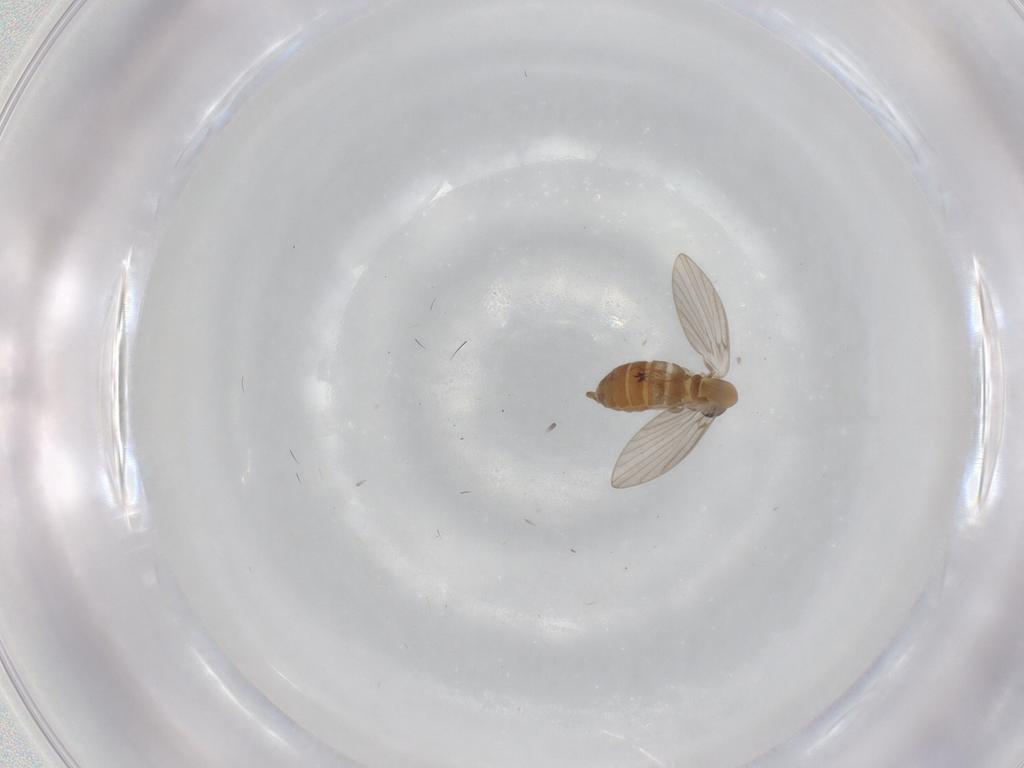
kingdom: Animalia
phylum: Arthropoda
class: Insecta
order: Diptera
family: Psychodidae
